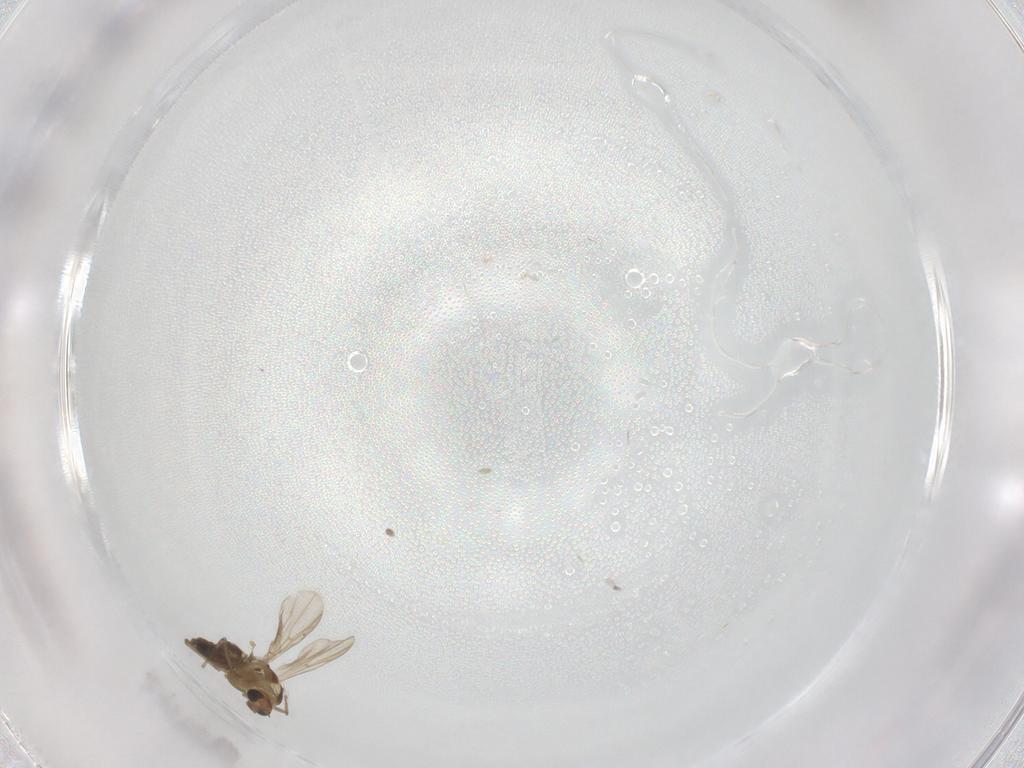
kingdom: Animalia
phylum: Arthropoda
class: Insecta
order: Diptera
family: Chironomidae
